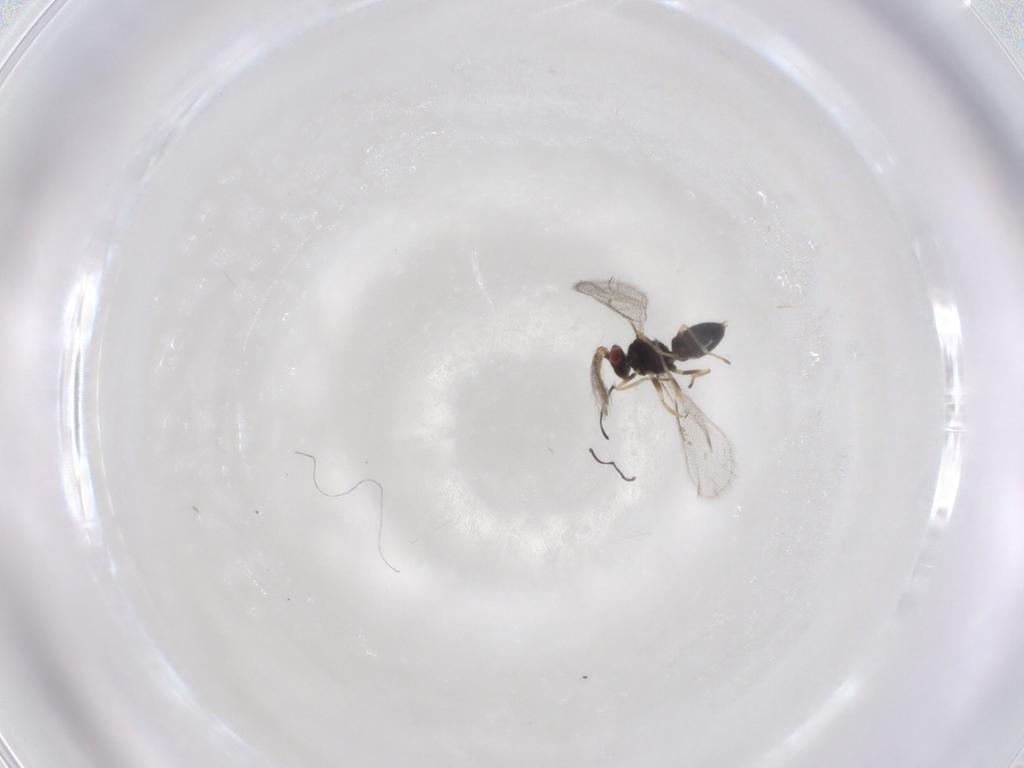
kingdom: Animalia
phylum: Arthropoda
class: Insecta
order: Hymenoptera
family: Eulophidae
